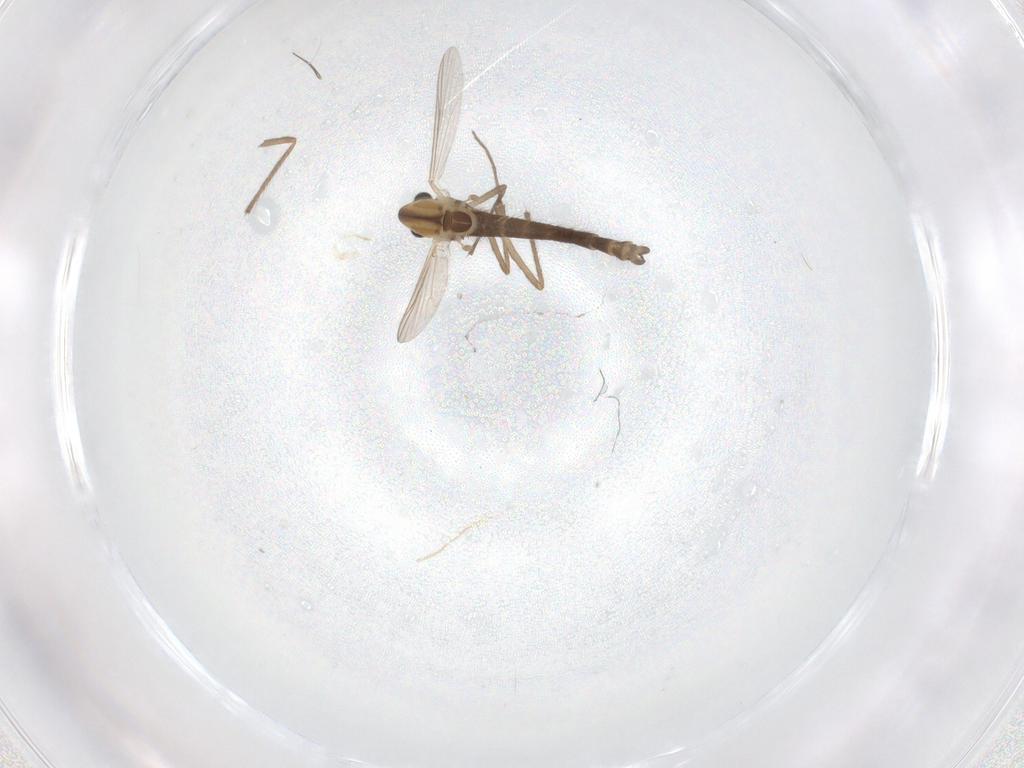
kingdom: Animalia
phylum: Arthropoda
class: Insecta
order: Diptera
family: Chironomidae
